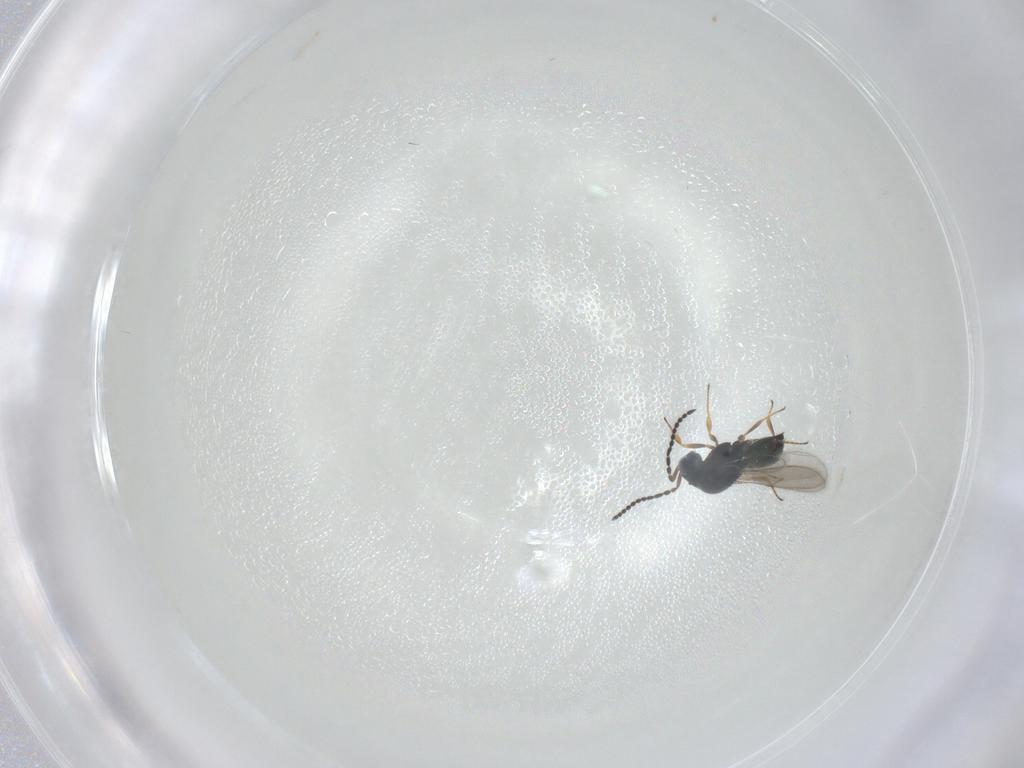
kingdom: Animalia
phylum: Arthropoda
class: Insecta
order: Hymenoptera
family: Scelionidae
